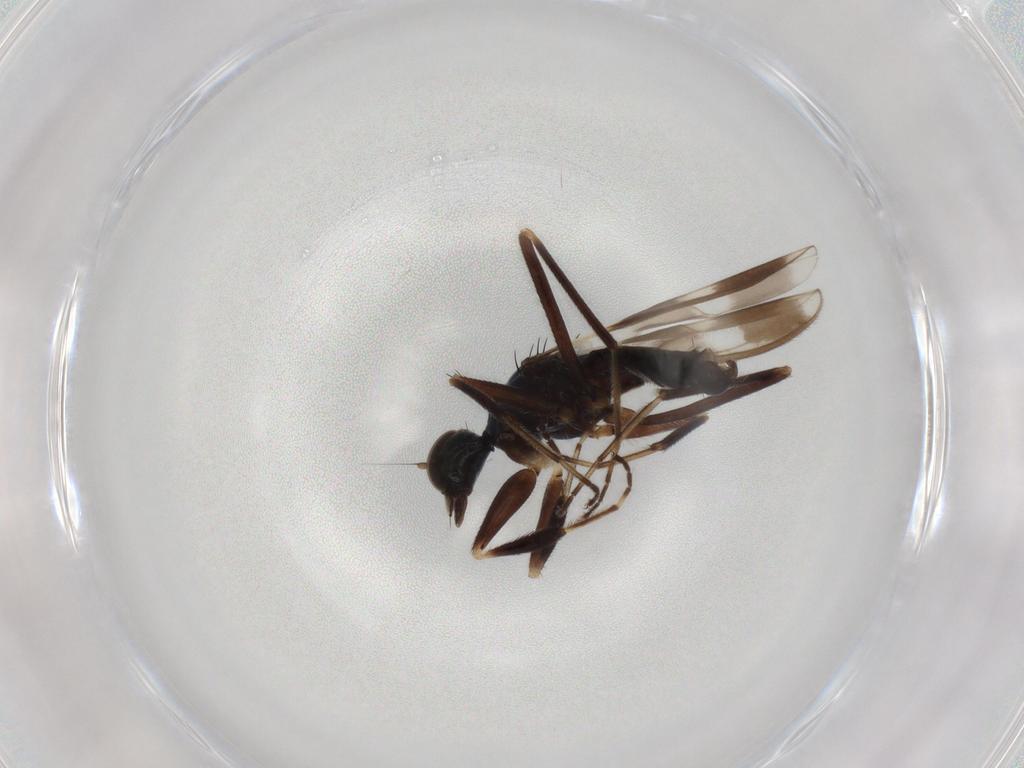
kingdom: Animalia
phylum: Arthropoda
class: Insecta
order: Diptera
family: Hybotidae
